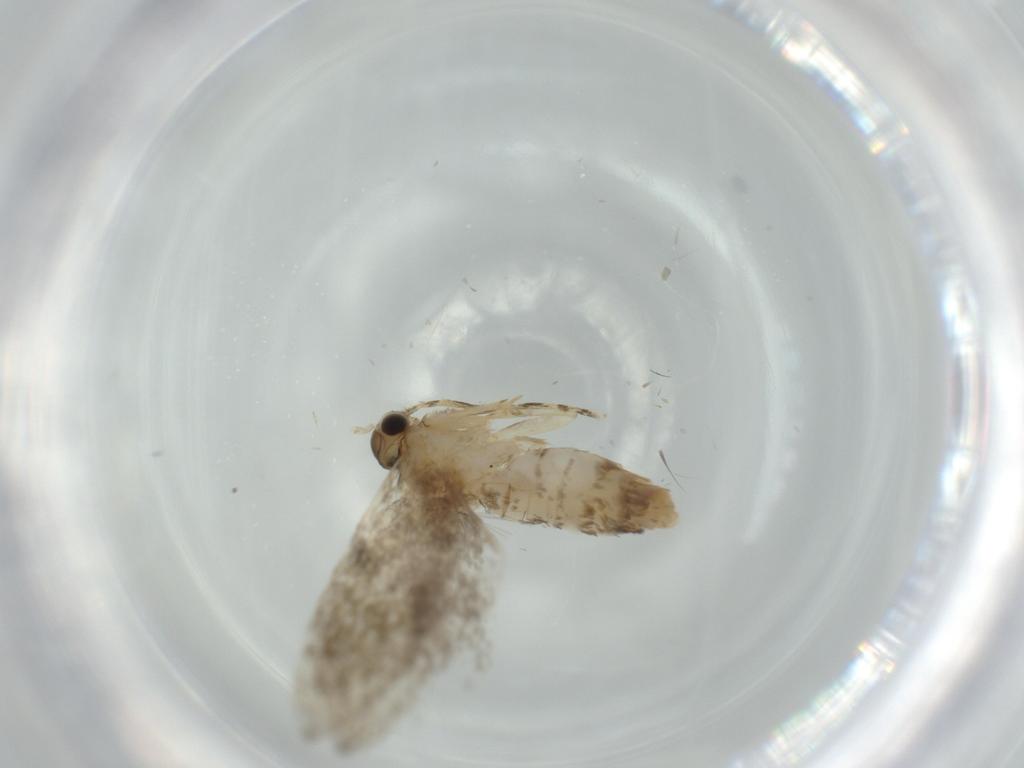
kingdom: Animalia
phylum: Arthropoda
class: Insecta
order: Lepidoptera
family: Tineidae
